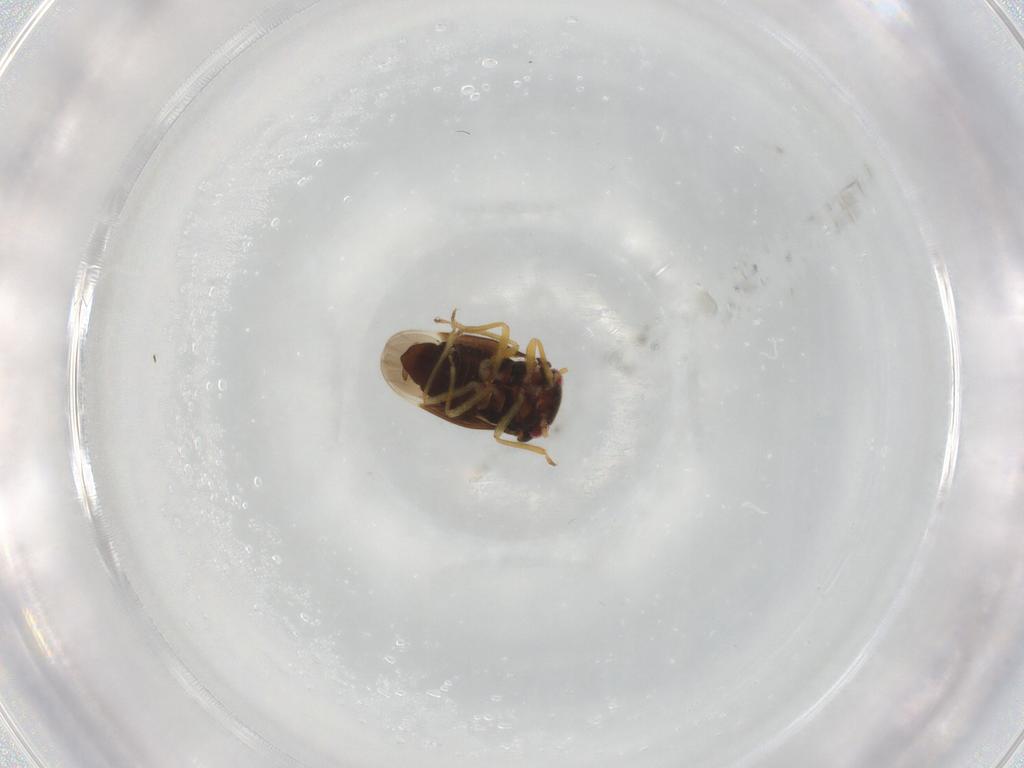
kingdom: Animalia
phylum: Arthropoda
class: Insecta
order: Hemiptera
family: Schizopteridae
